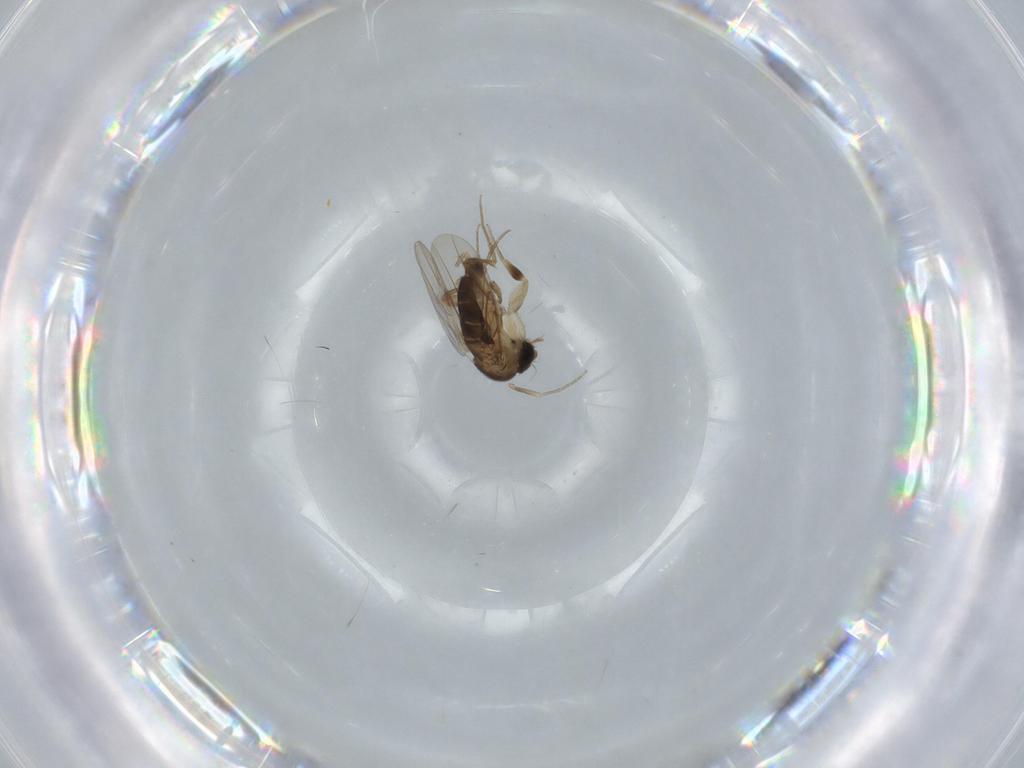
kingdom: Animalia
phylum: Arthropoda
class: Insecta
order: Diptera
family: Phoridae
